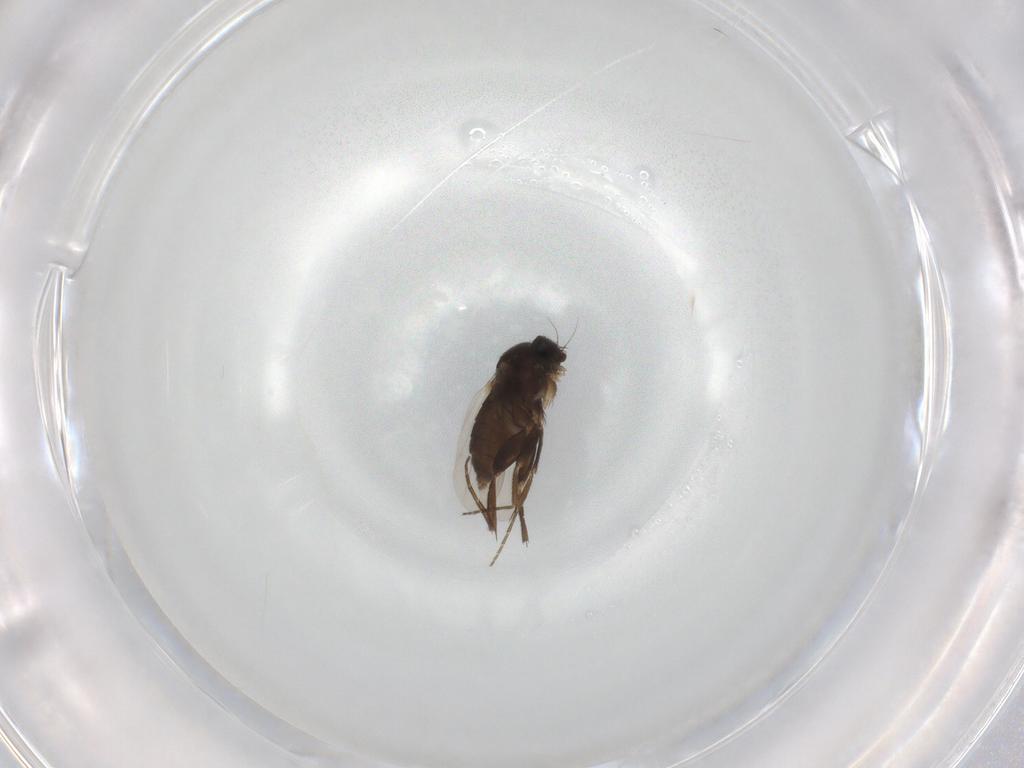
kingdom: Animalia
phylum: Arthropoda
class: Insecta
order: Diptera
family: Phoridae
